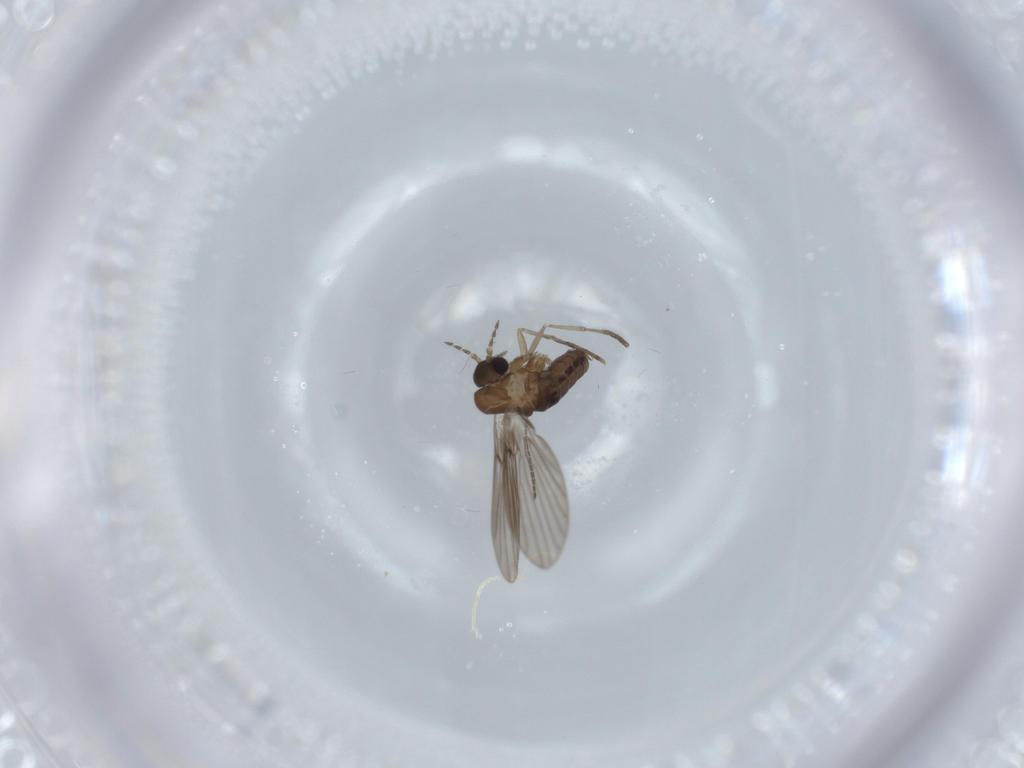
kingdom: Animalia
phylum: Arthropoda
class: Insecta
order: Diptera
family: Psychodidae
